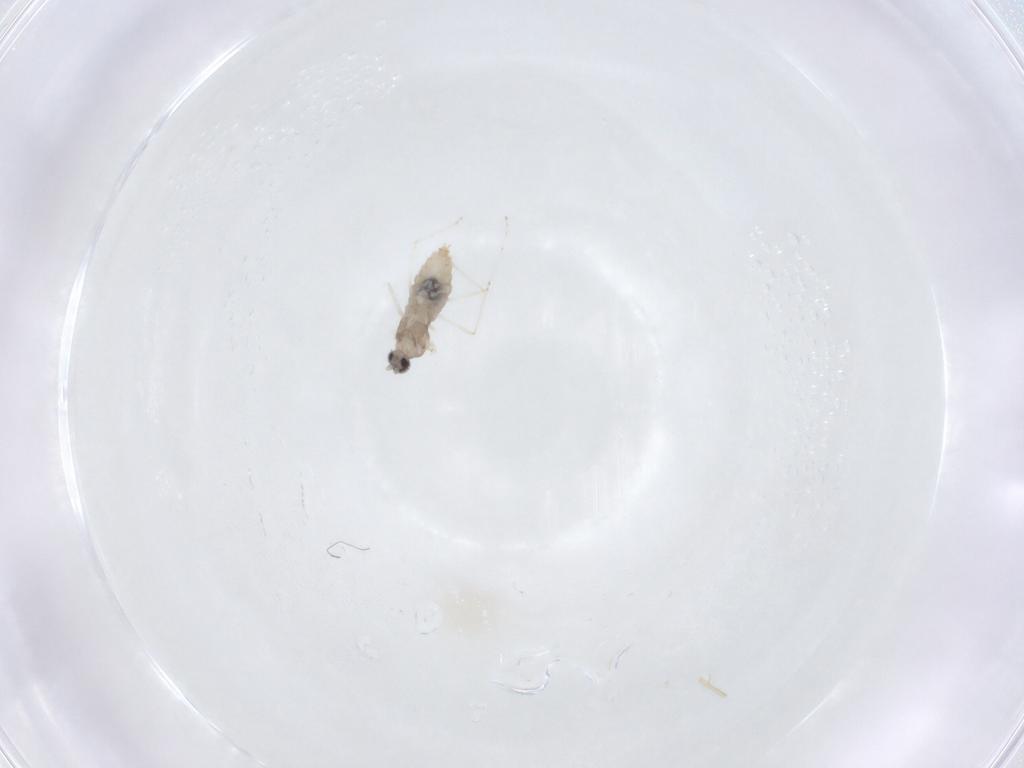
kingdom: Animalia
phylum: Arthropoda
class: Insecta
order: Diptera
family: Cecidomyiidae
